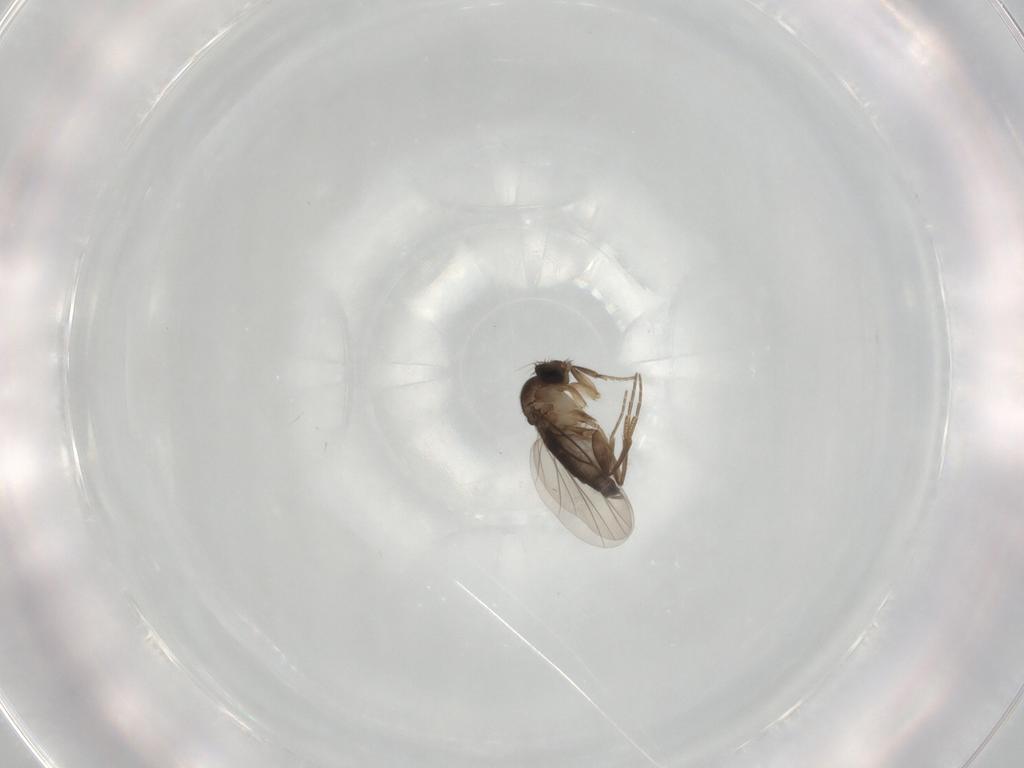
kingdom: Animalia
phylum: Arthropoda
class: Insecta
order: Diptera
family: Phoridae
